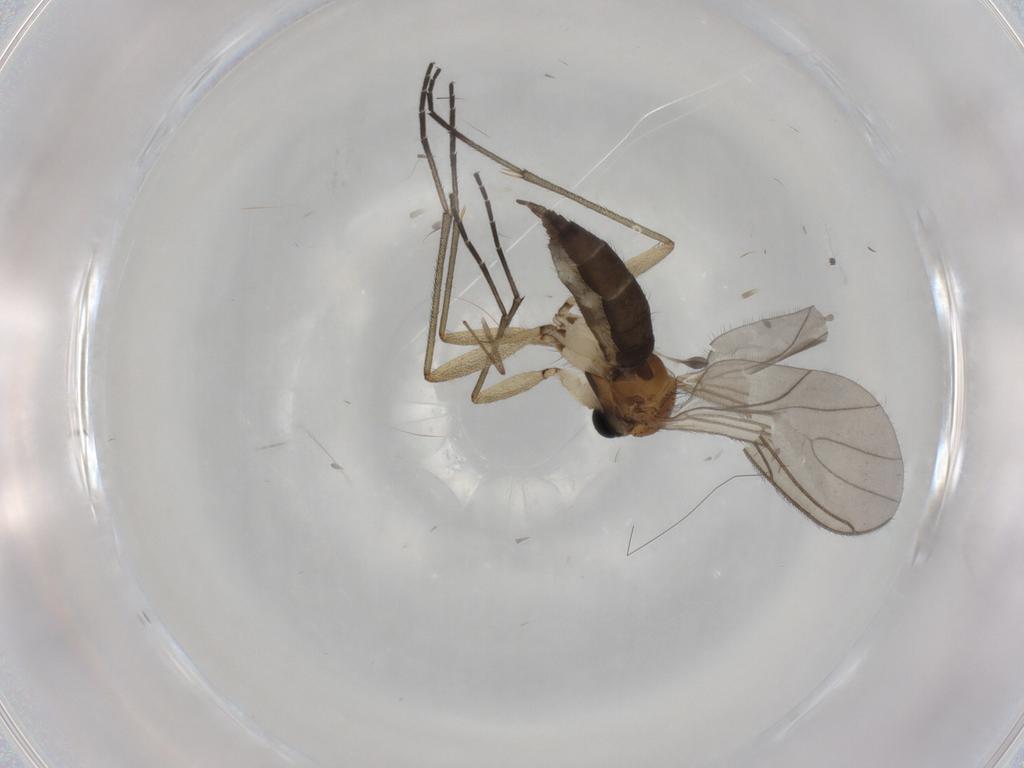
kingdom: Animalia
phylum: Arthropoda
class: Insecta
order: Diptera
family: Sciaridae
